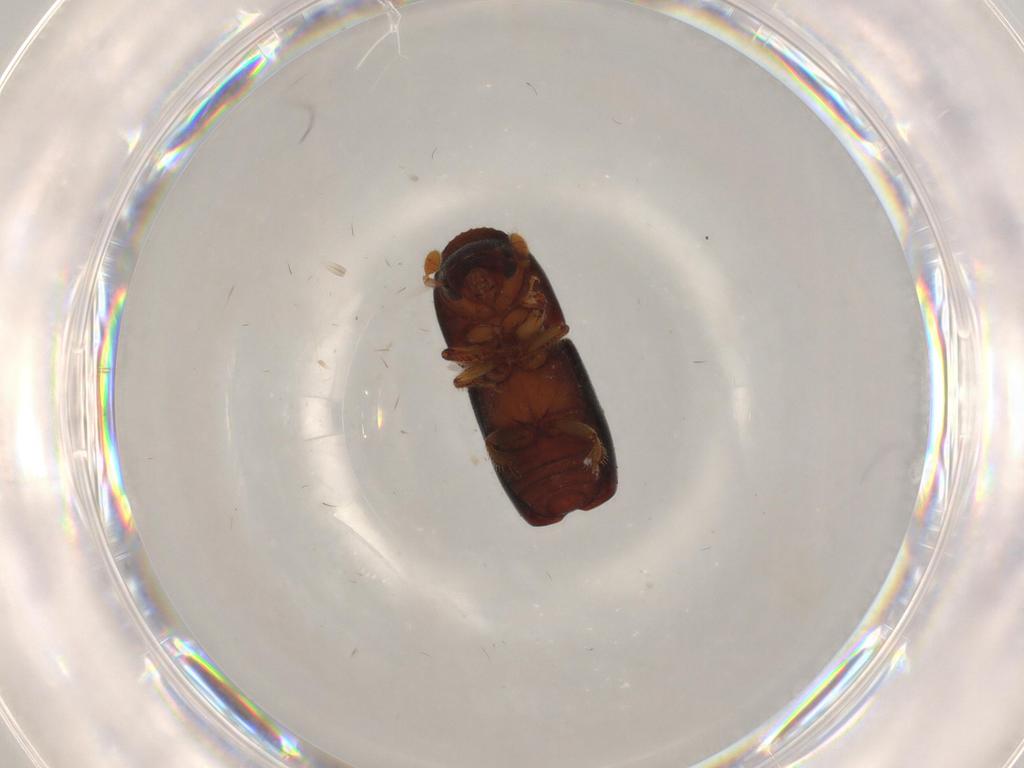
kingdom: Animalia
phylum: Arthropoda
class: Insecta
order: Coleoptera
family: Curculionidae
